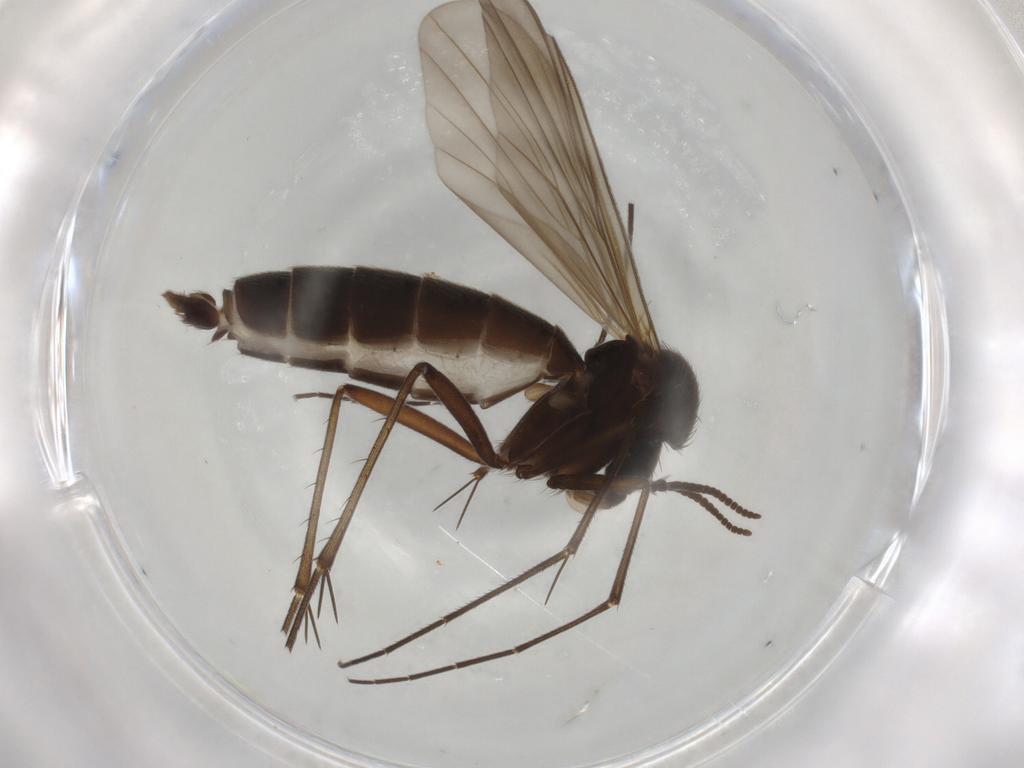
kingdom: Animalia
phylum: Arthropoda
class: Insecta
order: Diptera
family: Chironomidae
